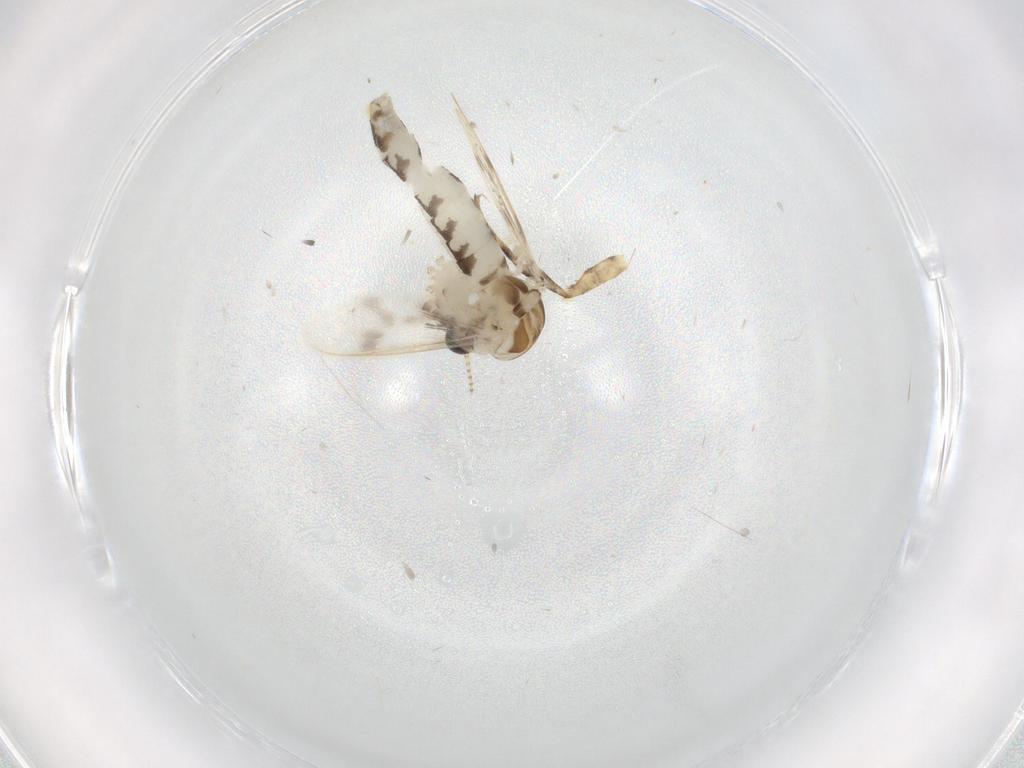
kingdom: Animalia
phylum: Arthropoda
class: Insecta
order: Diptera
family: Corethrellidae
